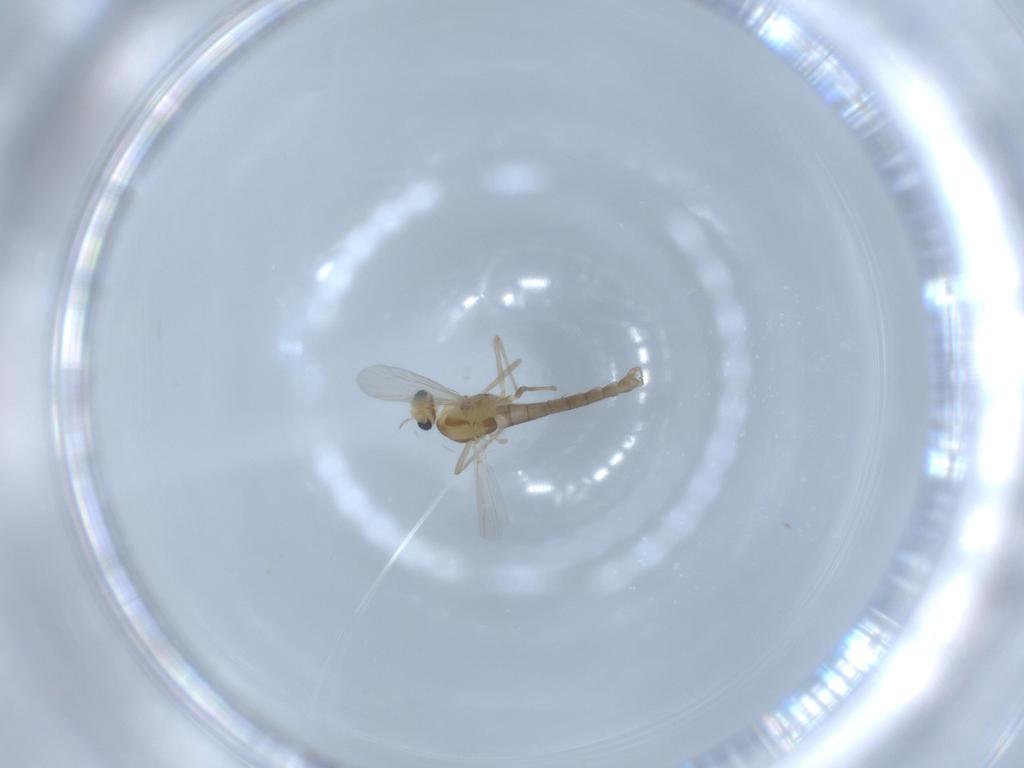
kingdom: Animalia
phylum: Arthropoda
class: Insecta
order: Diptera
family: Chironomidae
